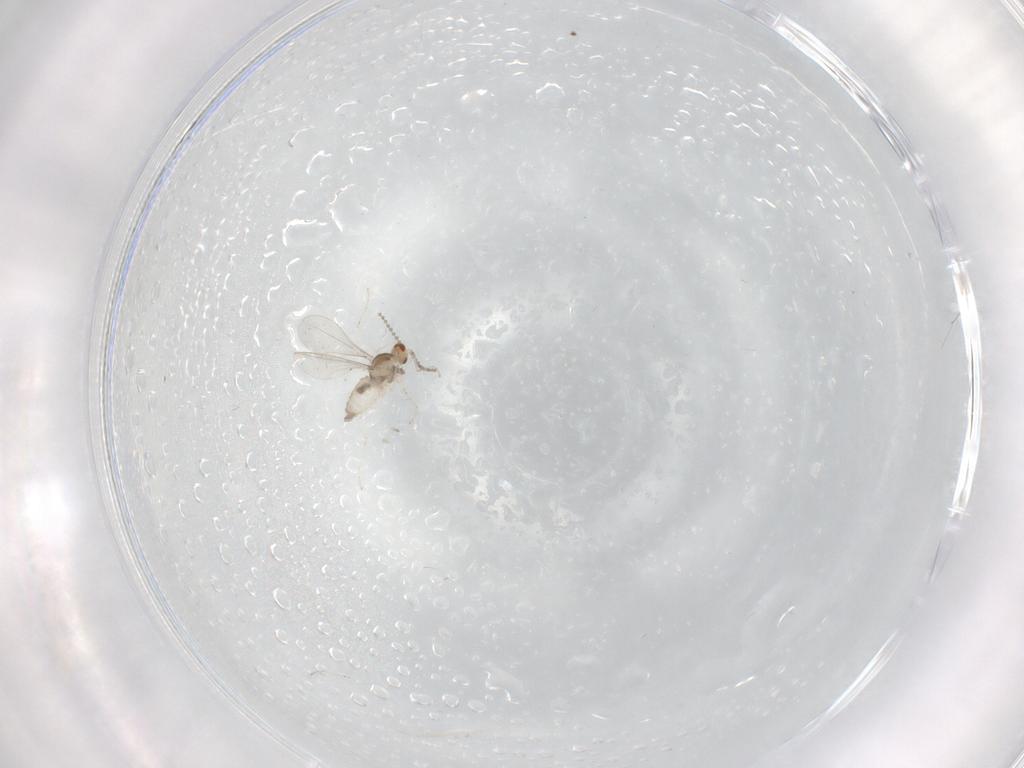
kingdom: Animalia
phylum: Arthropoda
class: Insecta
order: Diptera
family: Cecidomyiidae
